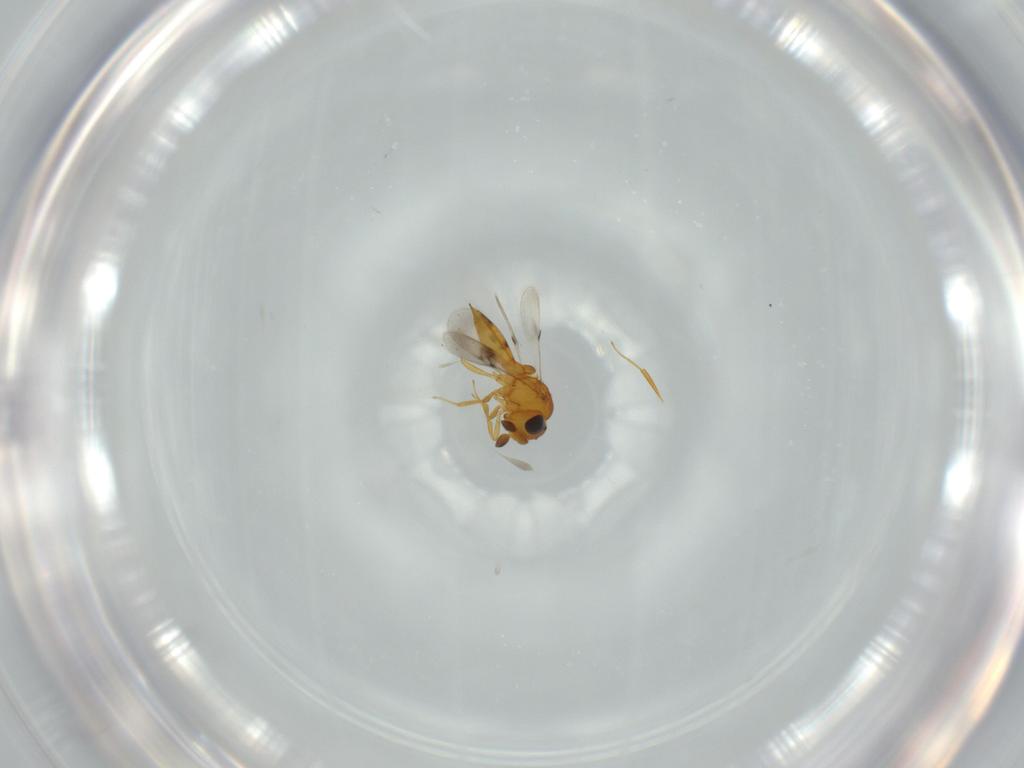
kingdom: Animalia
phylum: Arthropoda
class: Insecta
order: Hymenoptera
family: Scelionidae
